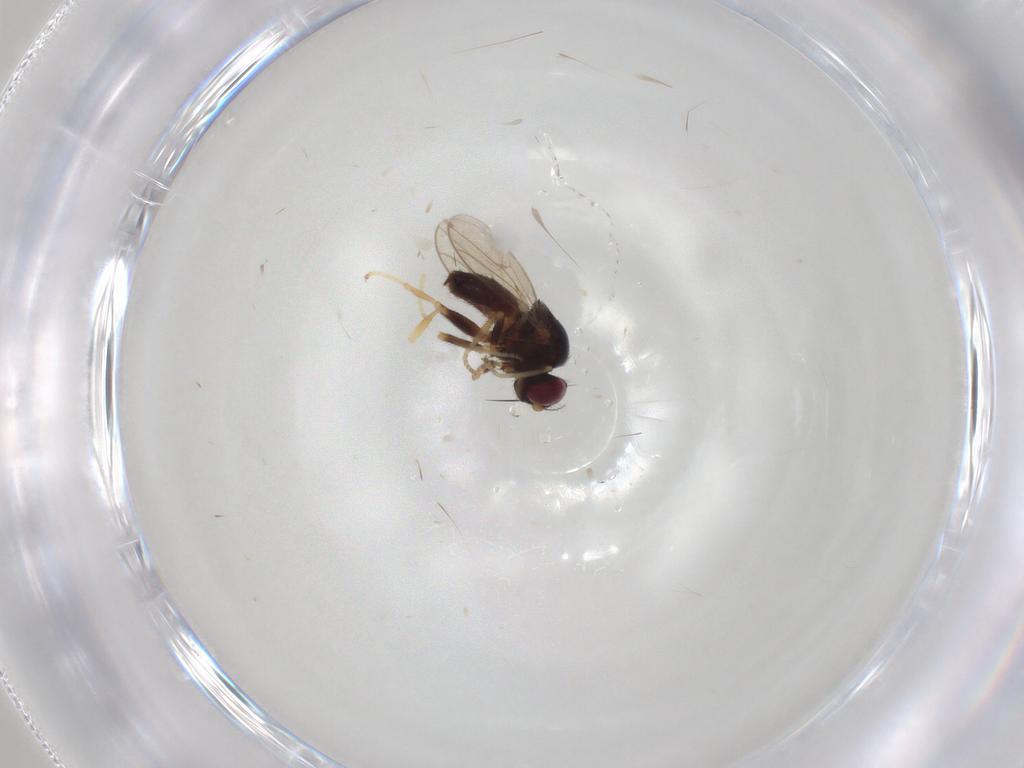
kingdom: Animalia
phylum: Arthropoda
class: Insecta
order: Diptera
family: Chloropidae
